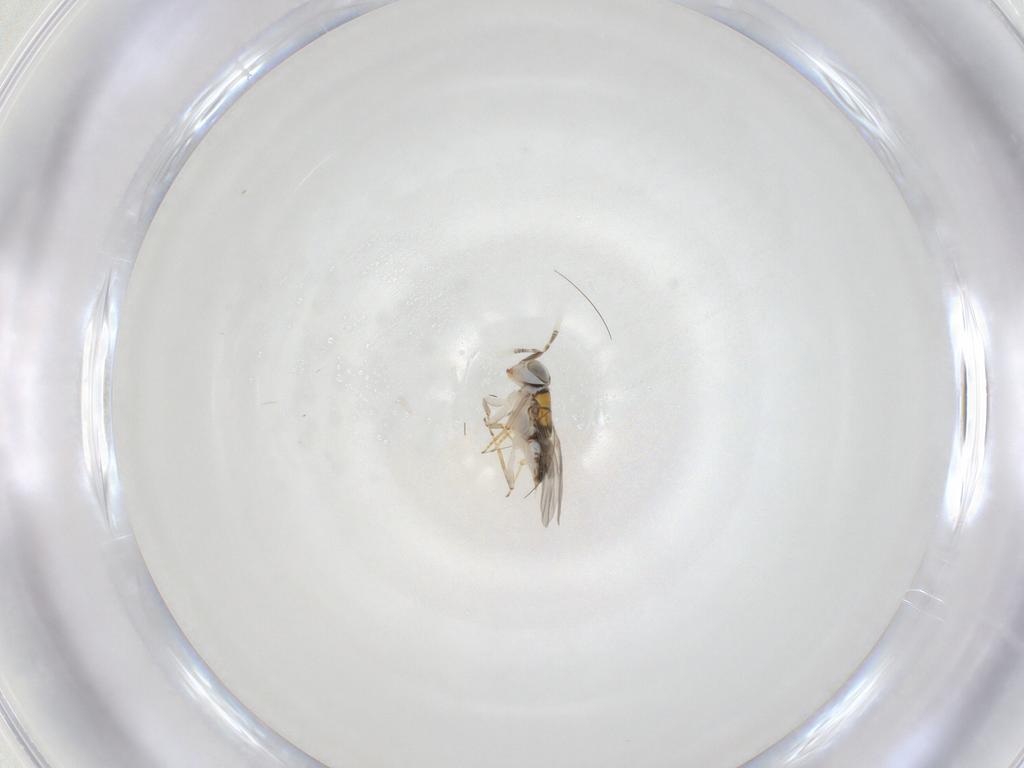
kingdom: Animalia
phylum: Arthropoda
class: Insecta
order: Hymenoptera
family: Encyrtidae
